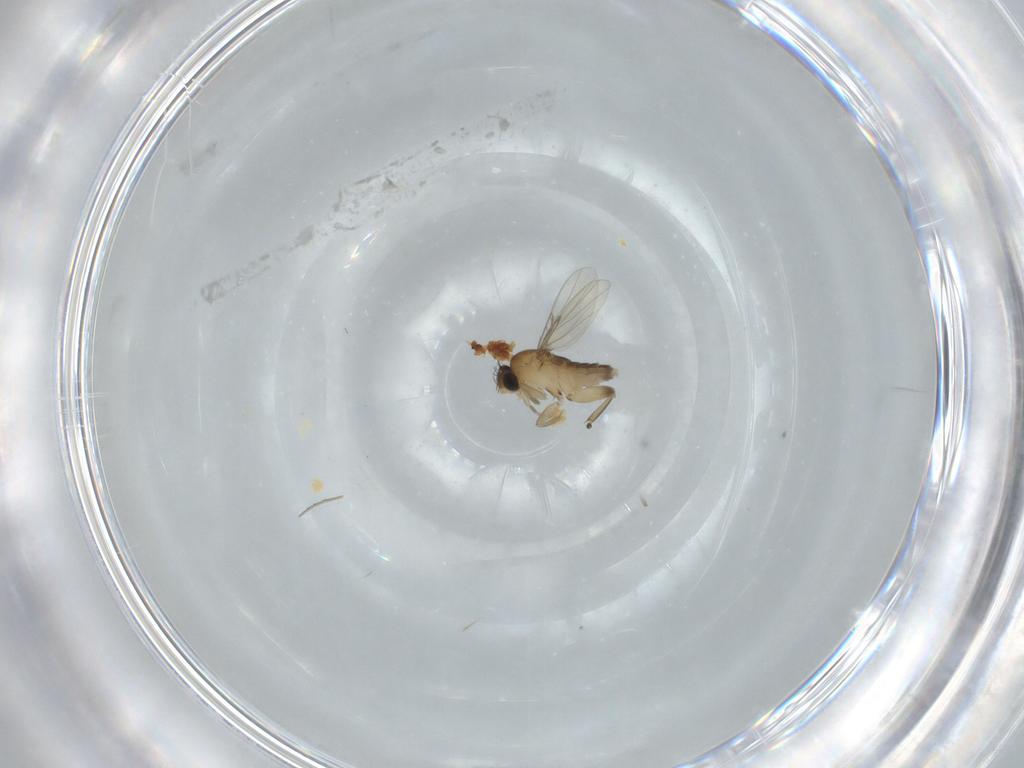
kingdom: Animalia
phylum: Arthropoda
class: Insecta
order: Diptera
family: Phoridae
